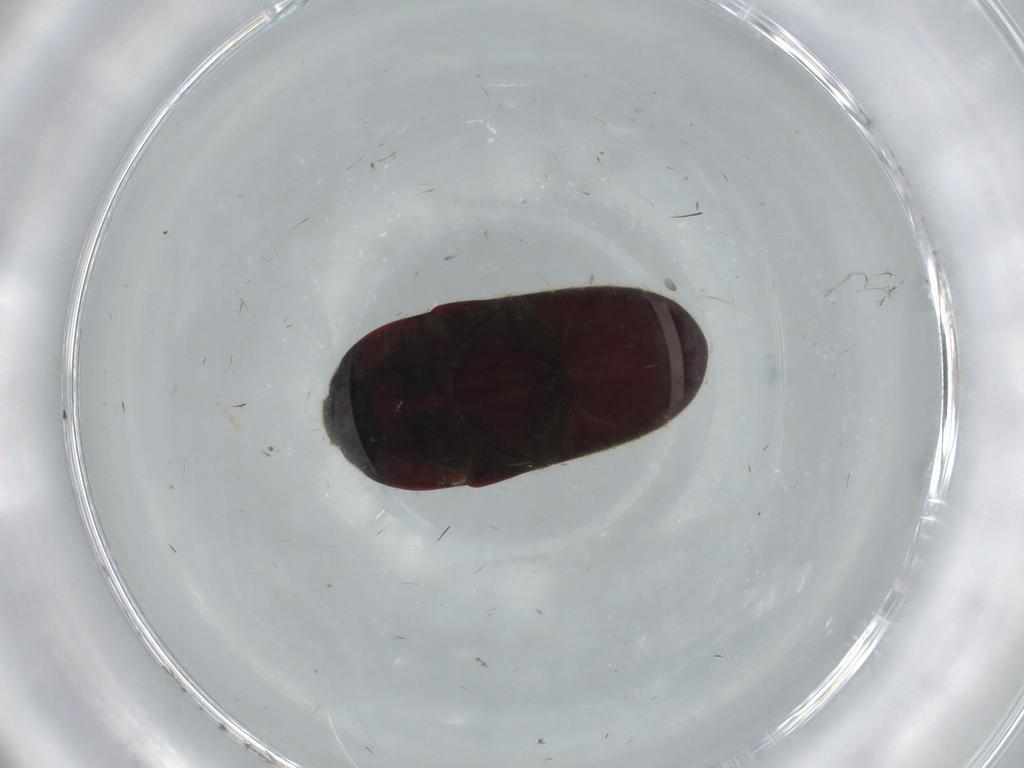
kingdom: Animalia
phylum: Arthropoda
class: Insecta
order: Coleoptera
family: Throscidae
